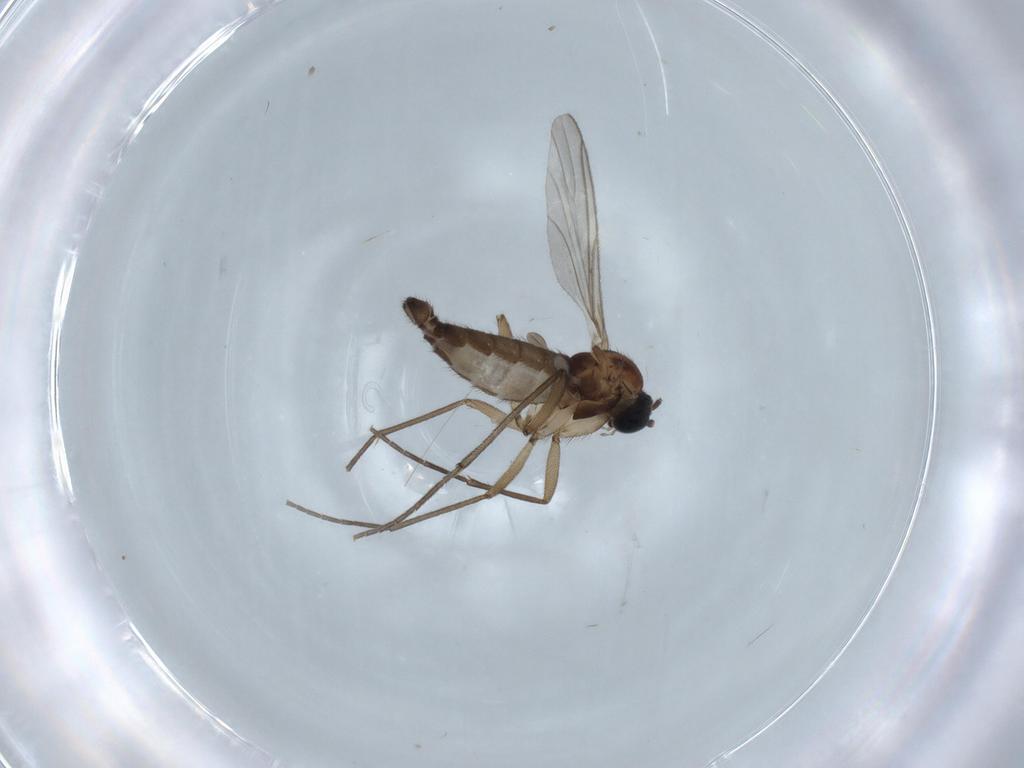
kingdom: Animalia
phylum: Arthropoda
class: Insecta
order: Diptera
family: Sciaridae
